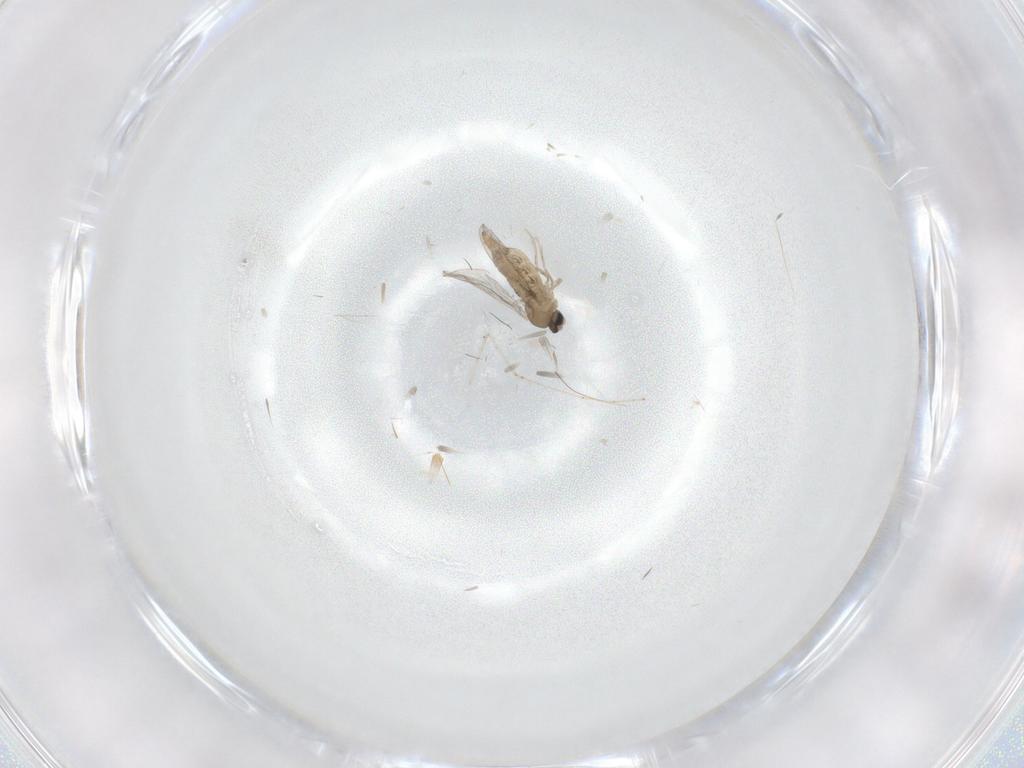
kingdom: Animalia
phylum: Arthropoda
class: Insecta
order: Diptera
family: Cecidomyiidae
